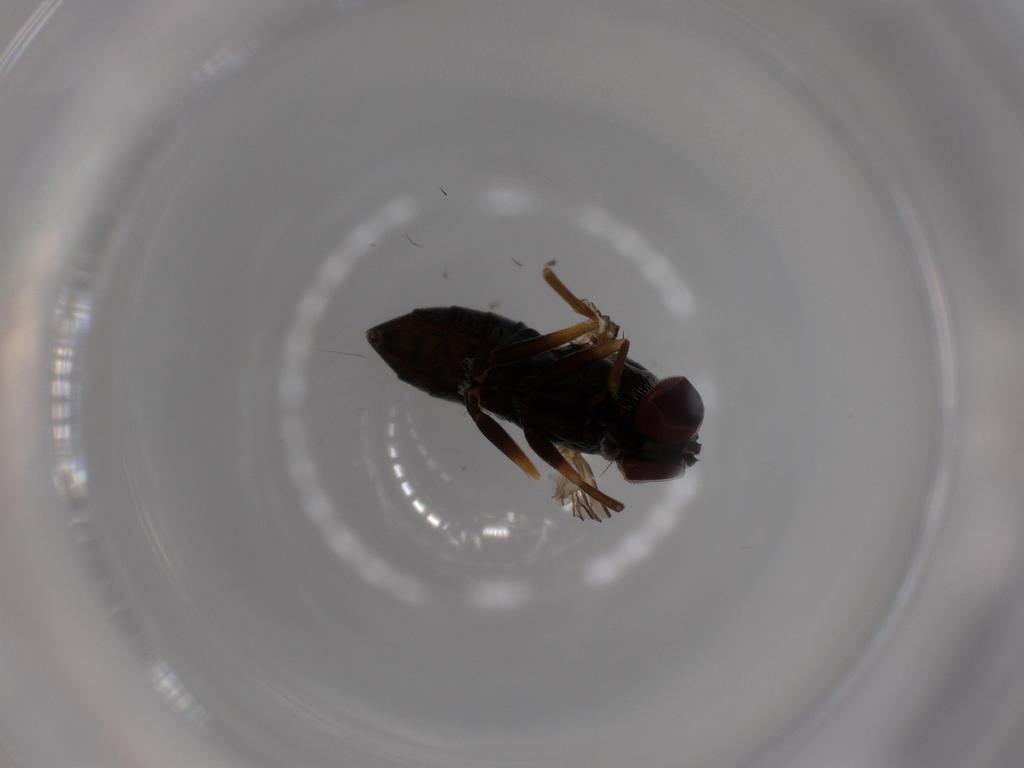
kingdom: Animalia
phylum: Arthropoda
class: Insecta
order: Diptera
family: Dolichopodidae
